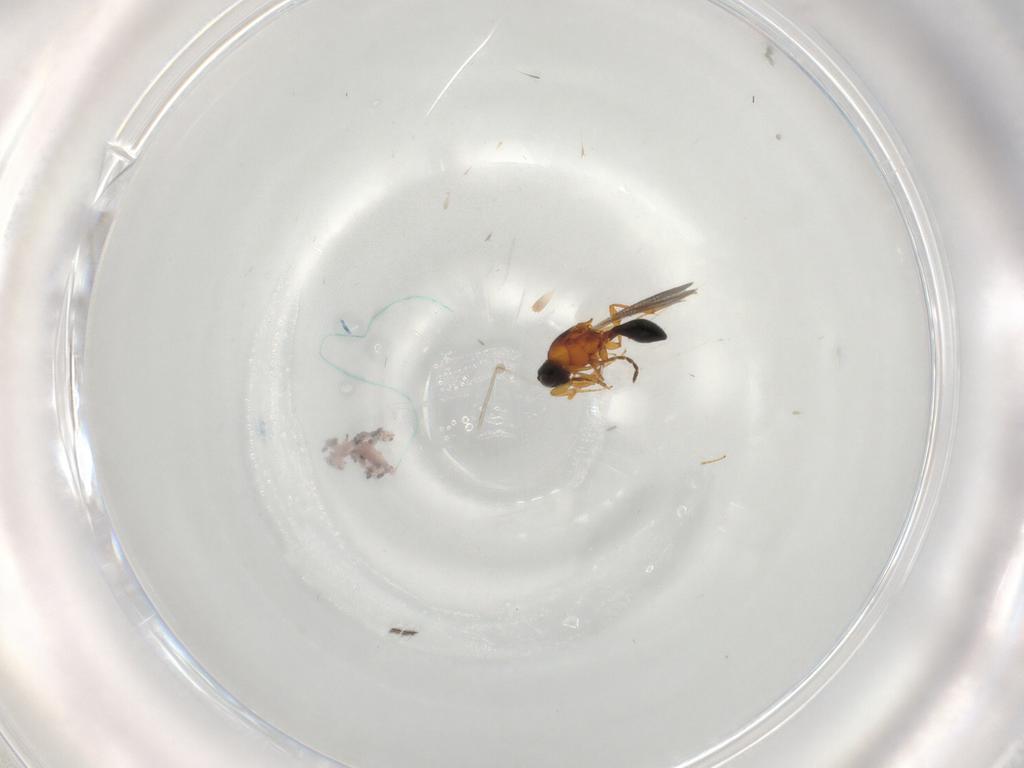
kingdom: Animalia
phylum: Arthropoda
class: Insecta
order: Hymenoptera
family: Platygastridae
